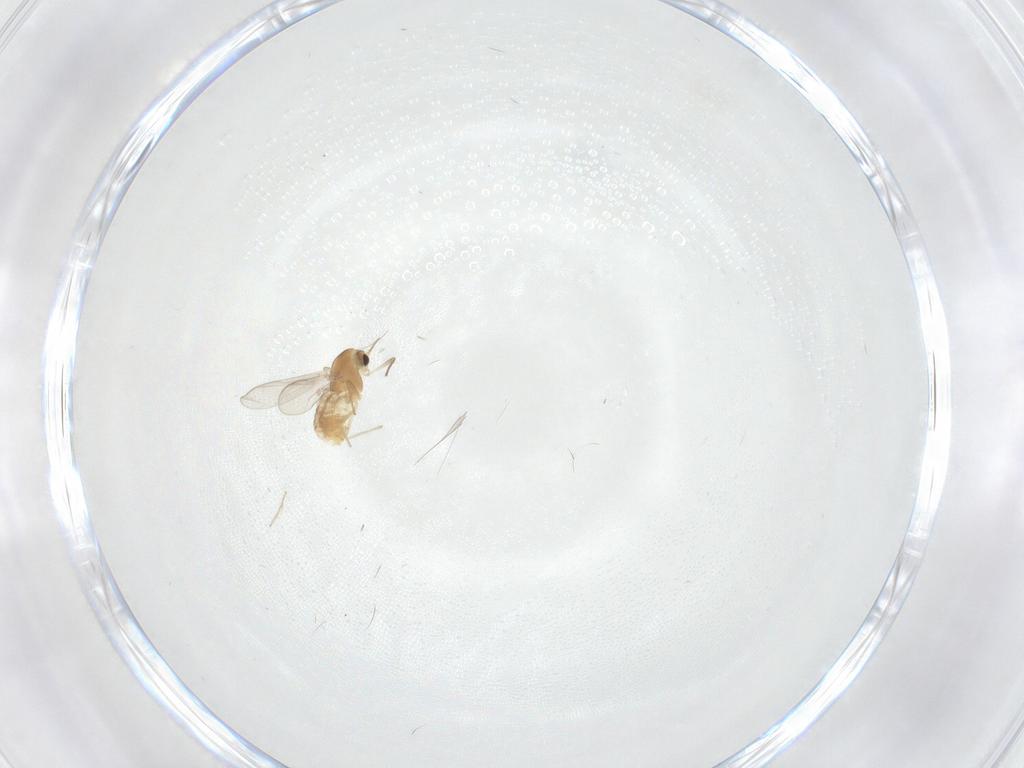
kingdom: Animalia
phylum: Arthropoda
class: Insecta
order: Diptera
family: Chironomidae
